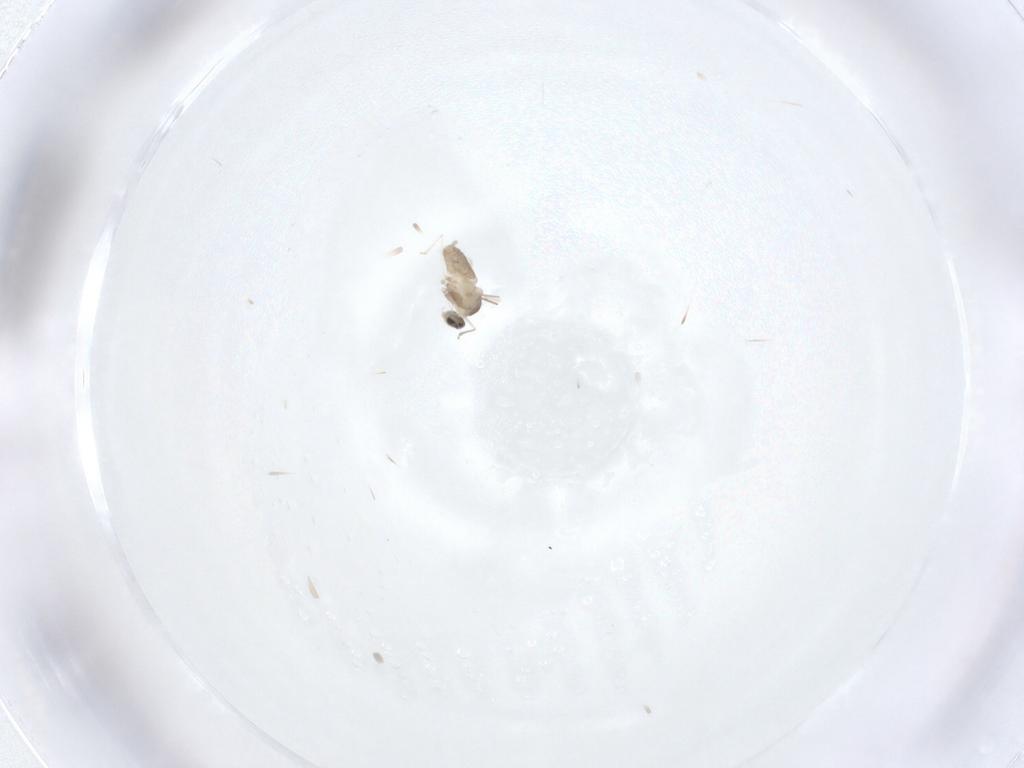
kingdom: Animalia
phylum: Arthropoda
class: Insecta
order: Diptera
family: Cecidomyiidae
